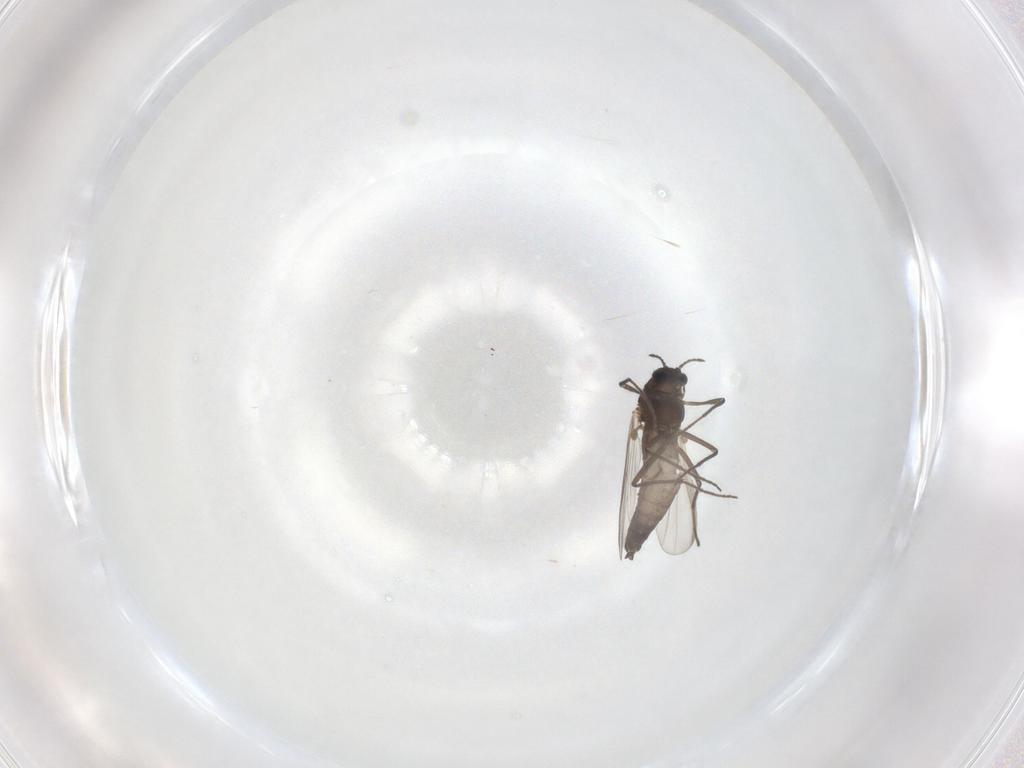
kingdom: Animalia
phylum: Arthropoda
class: Insecta
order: Diptera
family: Chironomidae
